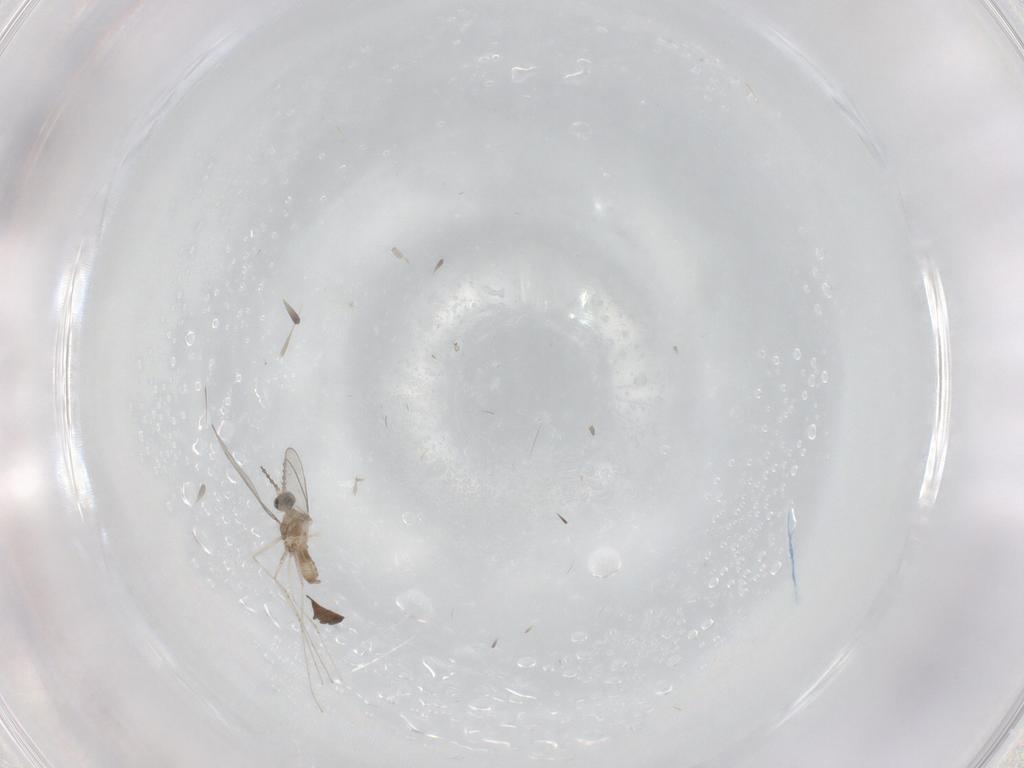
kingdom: Animalia
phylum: Arthropoda
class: Insecta
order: Diptera
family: Cecidomyiidae
